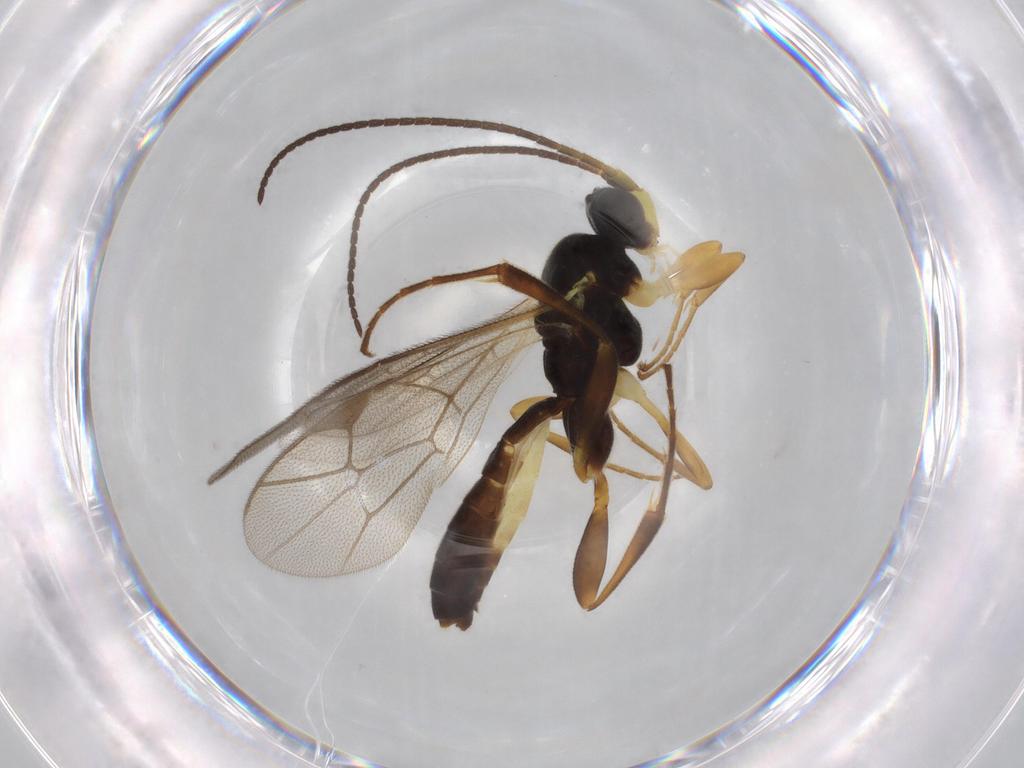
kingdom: Animalia
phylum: Arthropoda
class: Insecta
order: Hymenoptera
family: Ichneumonidae
